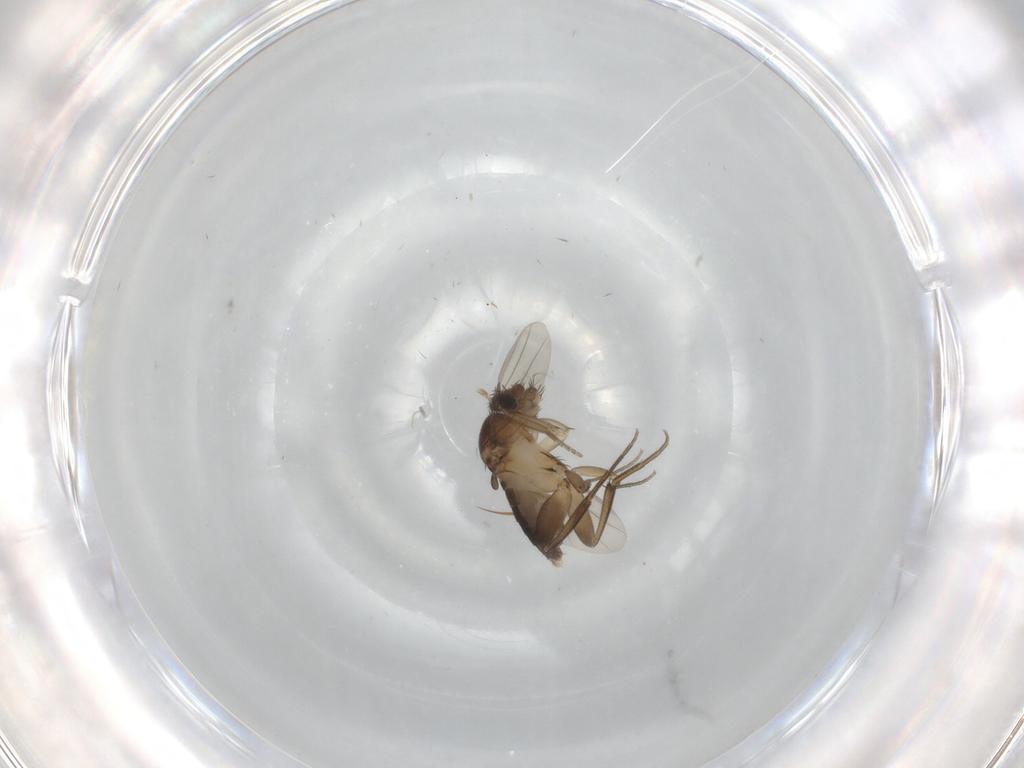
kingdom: Animalia
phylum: Arthropoda
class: Insecta
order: Diptera
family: Phoridae
